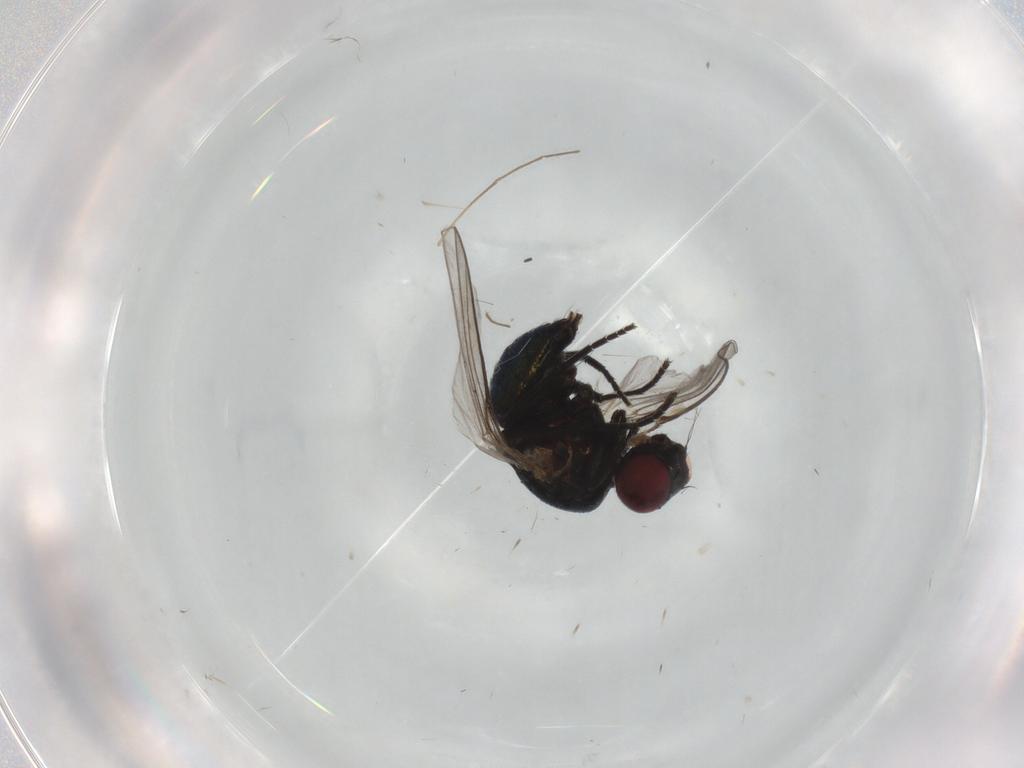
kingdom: Animalia
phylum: Arthropoda
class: Insecta
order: Diptera
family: Agromyzidae
